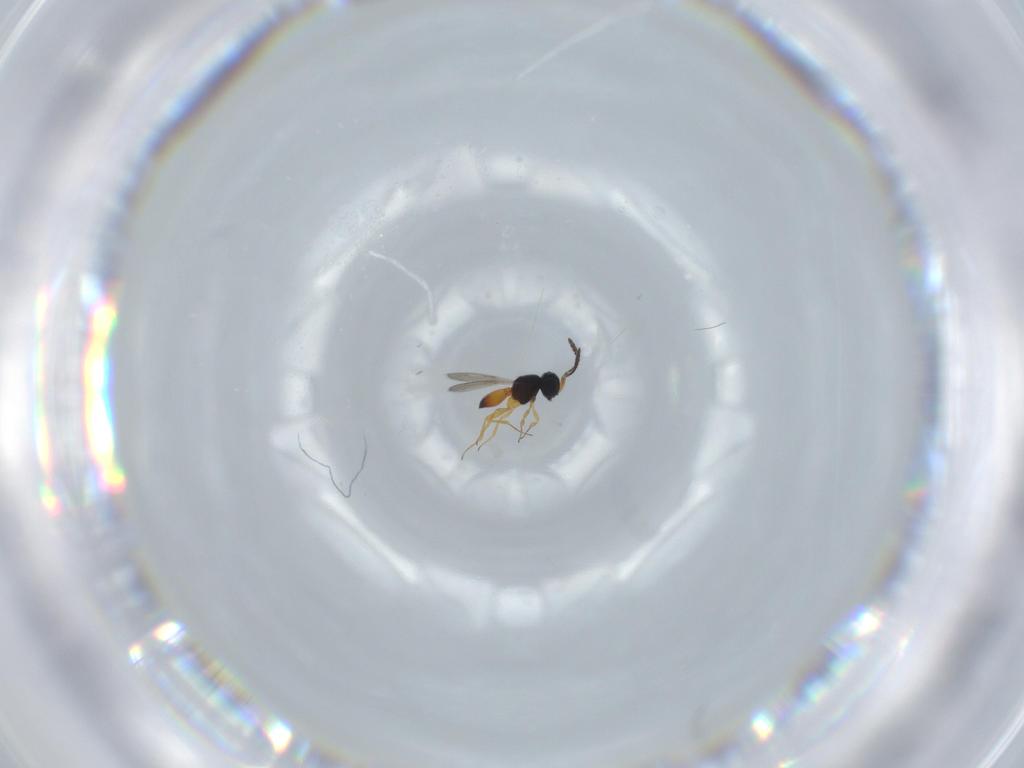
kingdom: Animalia
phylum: Arthropoda
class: Insecta
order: Hymenoptera
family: Scelionidae
